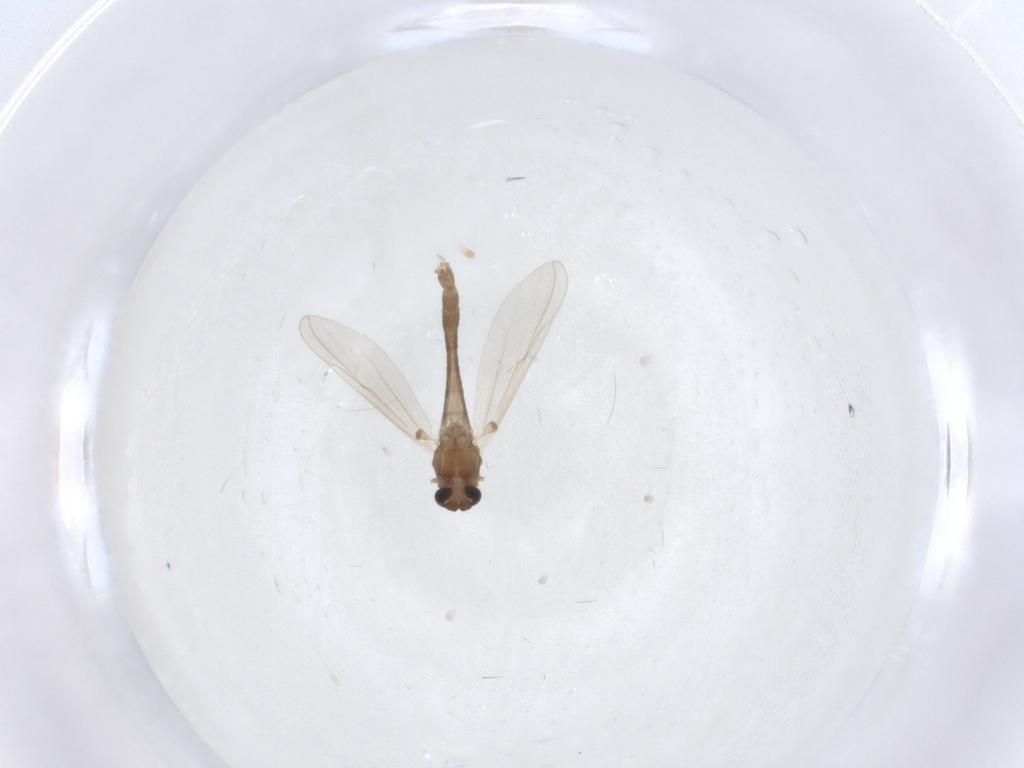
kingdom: Animalia
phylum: Arthropoda
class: Insecta
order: Diptera
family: Chironomidae
